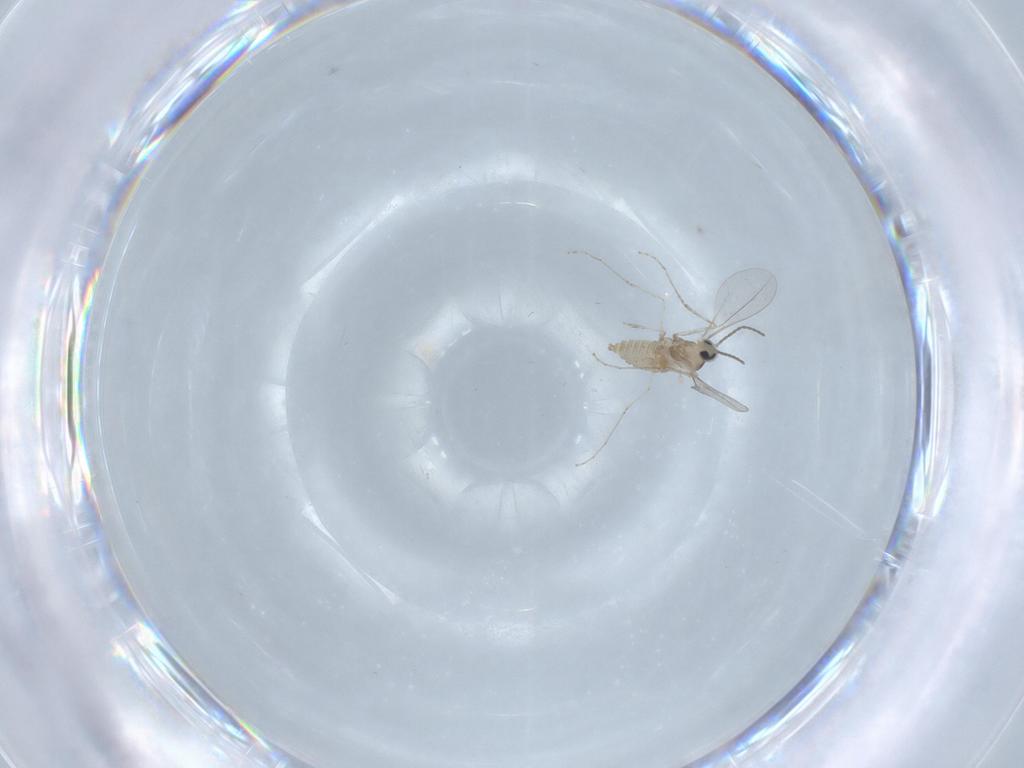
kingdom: Animalia
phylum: Arthropoda
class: Insecta
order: Diptera
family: Cecidomyiidae
